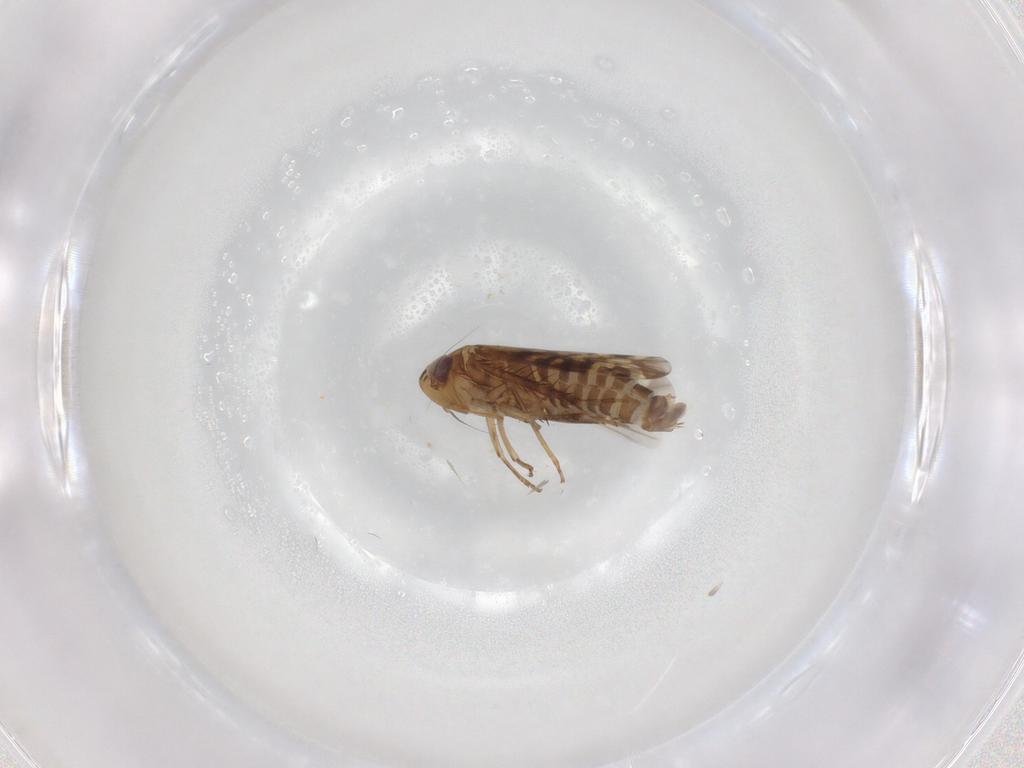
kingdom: Animalia
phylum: Arthropoda
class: Insecta
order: Hemiptera
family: Cicadellidae
